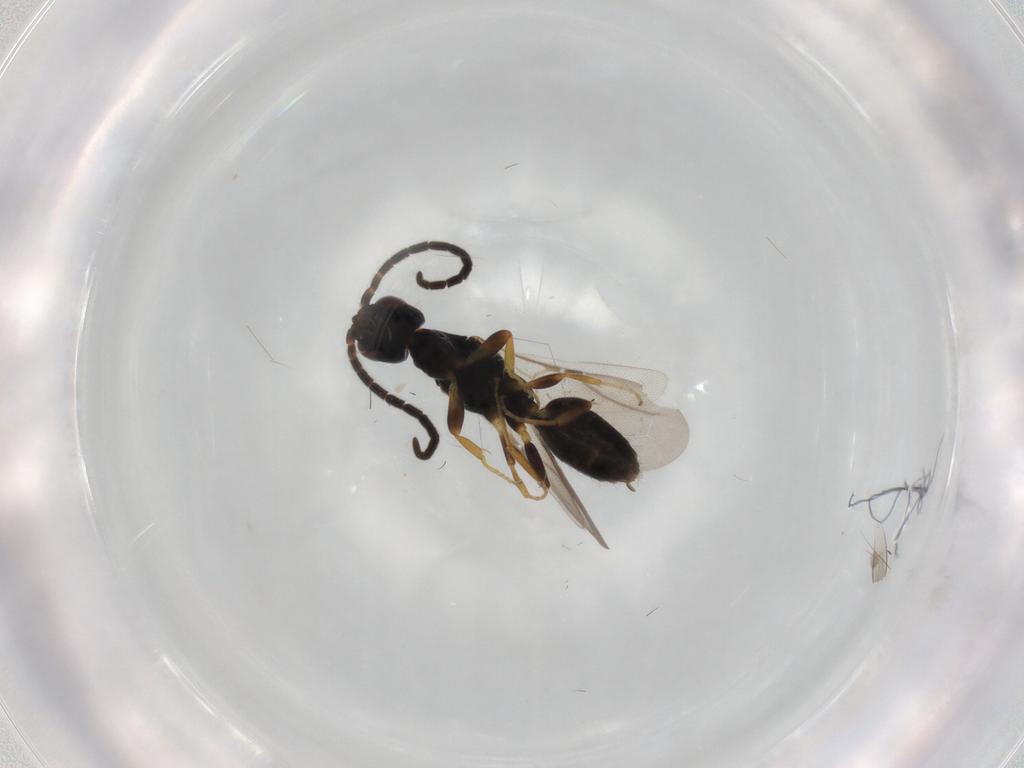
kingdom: Animalia
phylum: Arthropoda
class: Insecta
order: Hymenoptera
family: Bethylidae
